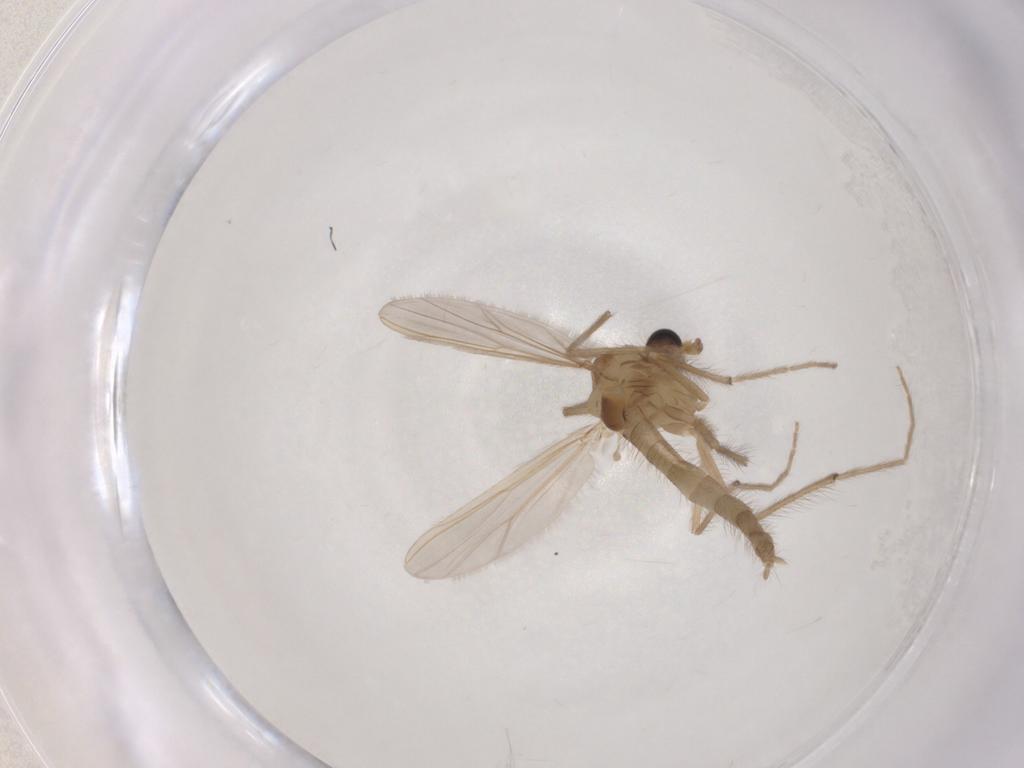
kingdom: Animalia
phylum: Arthropoda
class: Insecta
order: Diptera
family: Chironomidae
